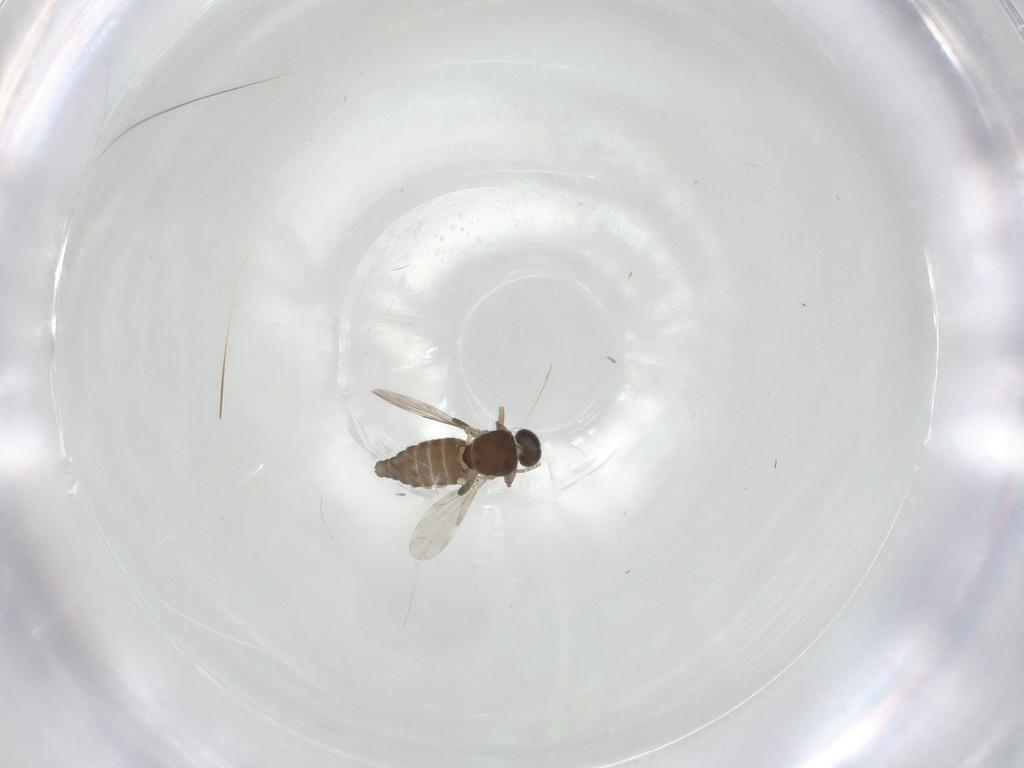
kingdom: Animalia
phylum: Arthropoda
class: Insecta
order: Diptera
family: Ceratopogonidae
